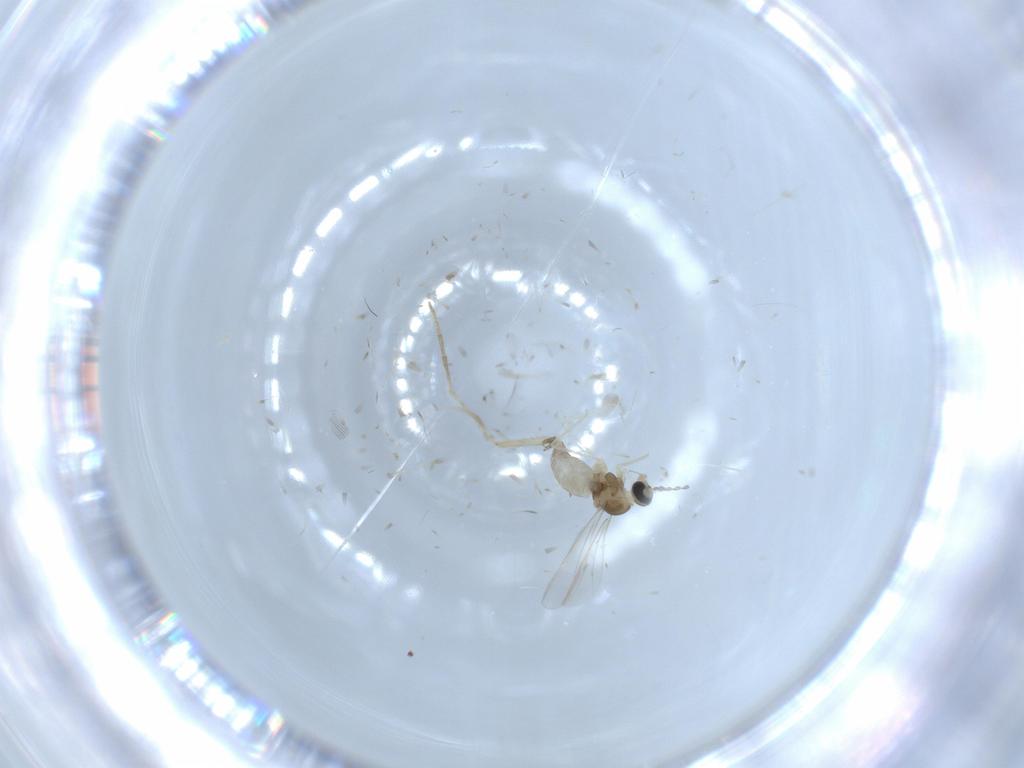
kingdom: Animalia
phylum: Arthropoda
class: Insecta
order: Diptera
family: Cecidomyiidae
